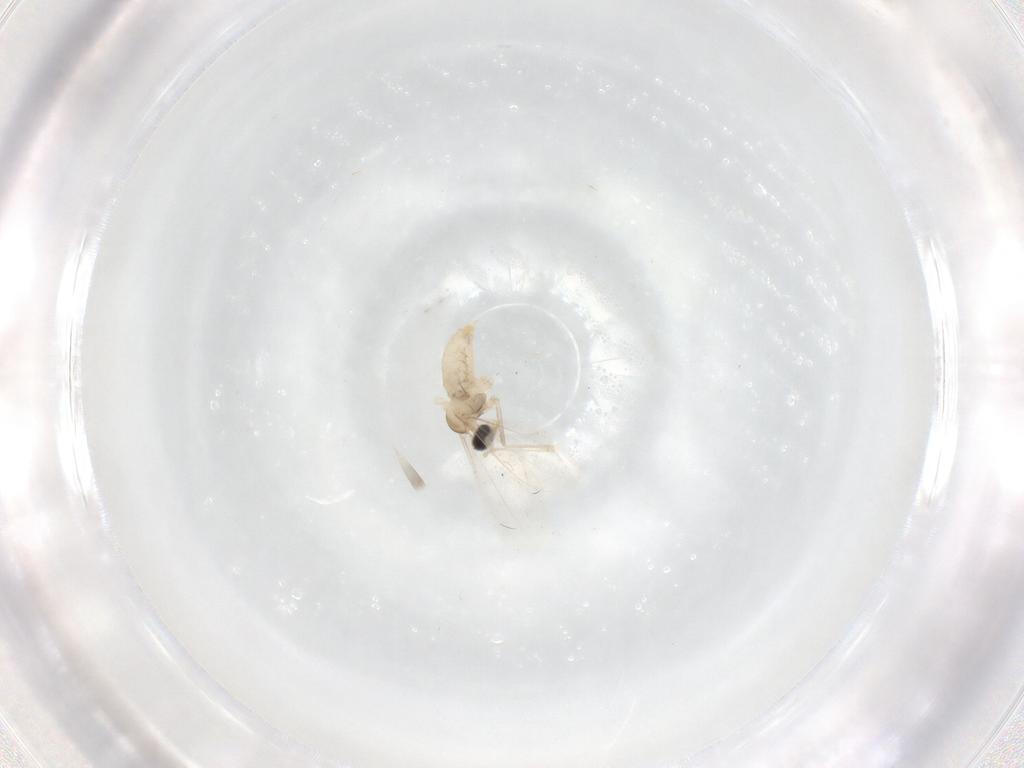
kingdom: Animalia
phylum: Arthropoda
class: Insecta
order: Diptera
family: Cecidomyiidae
